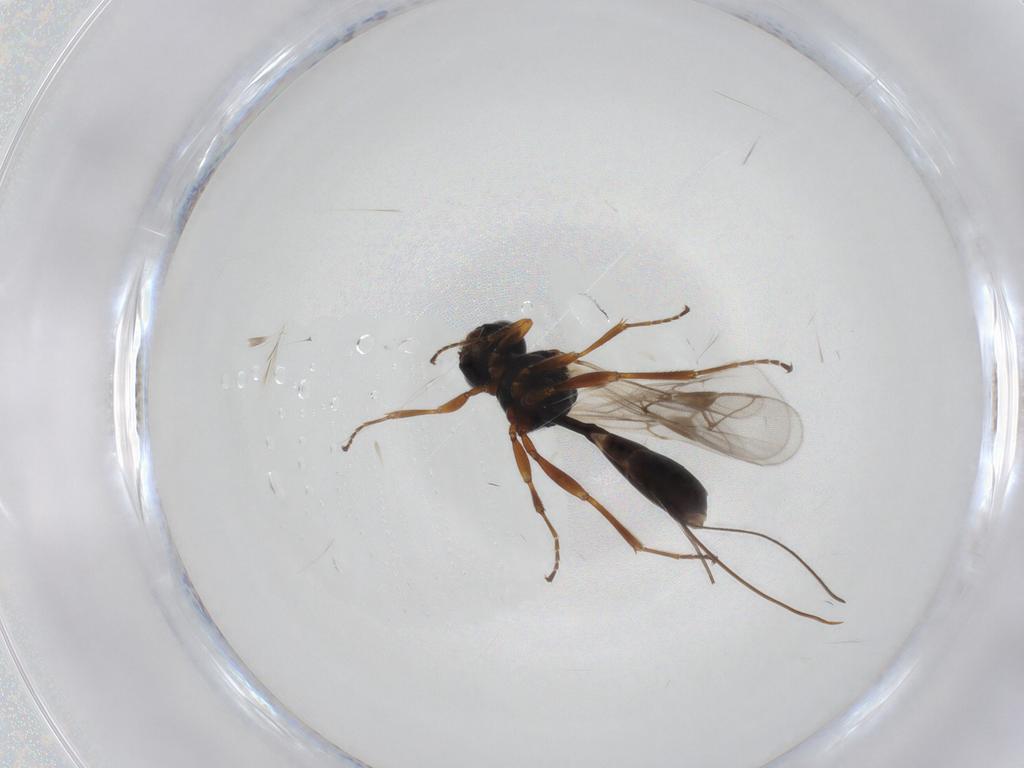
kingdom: Animalia
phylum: Arthropoda
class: Insecta
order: Hymenoptera
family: Ichneumonidae
